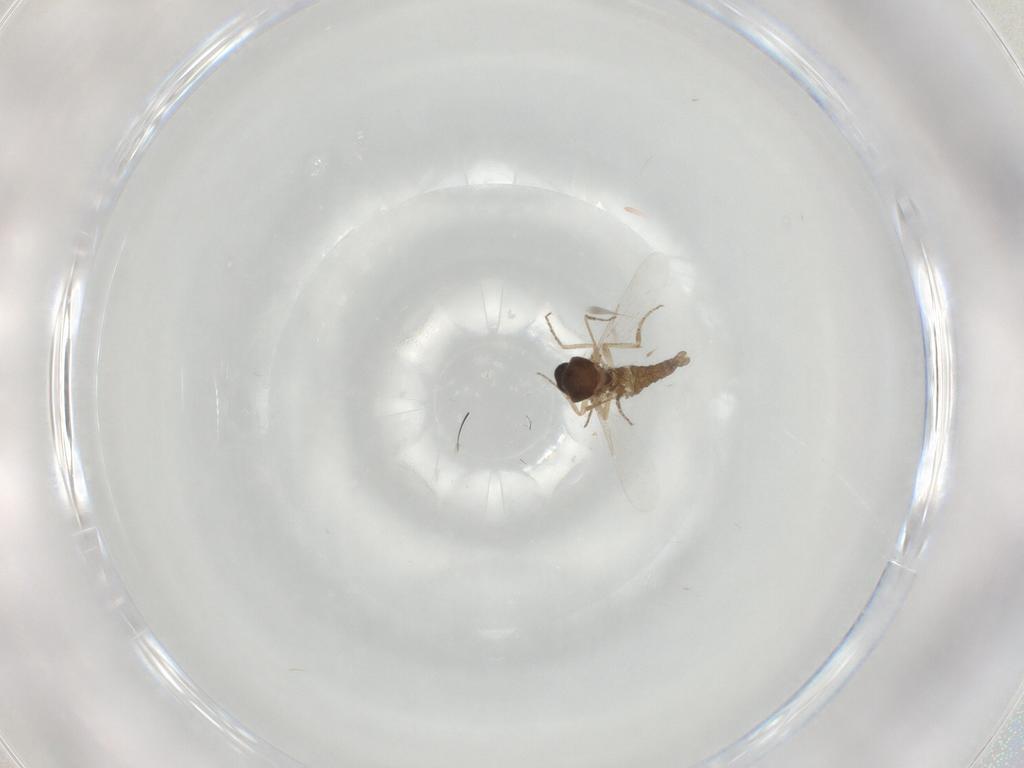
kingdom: Animalia
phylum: Arthropoda
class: Insecta
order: Diptera
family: Ceratopogonidae
